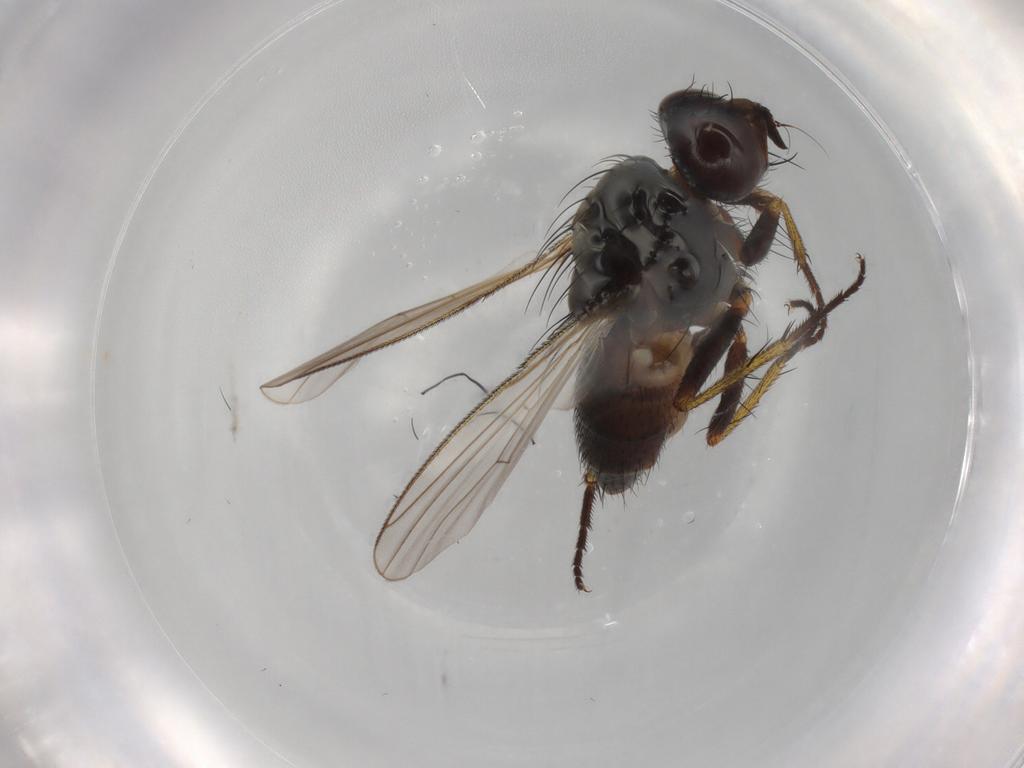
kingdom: Animalia
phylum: Arthropoda
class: Insecta
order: Diptera
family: Muscidae
